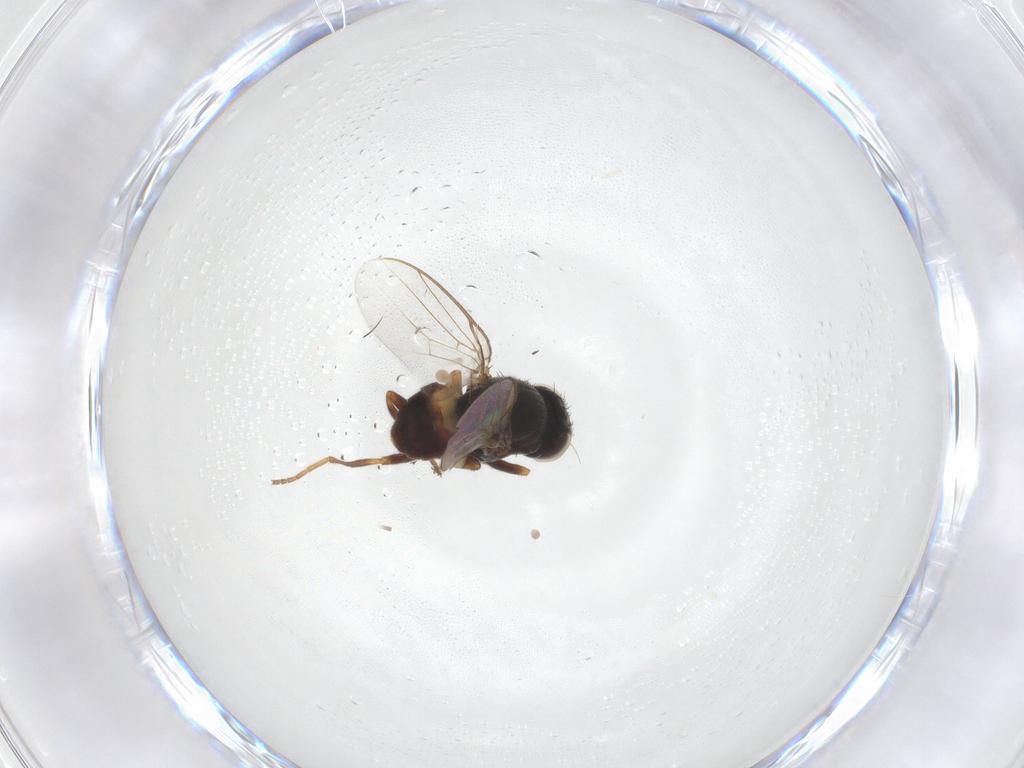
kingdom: Animalia
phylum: Arthropoda
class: Insecta
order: Diptera
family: Chloropidae
